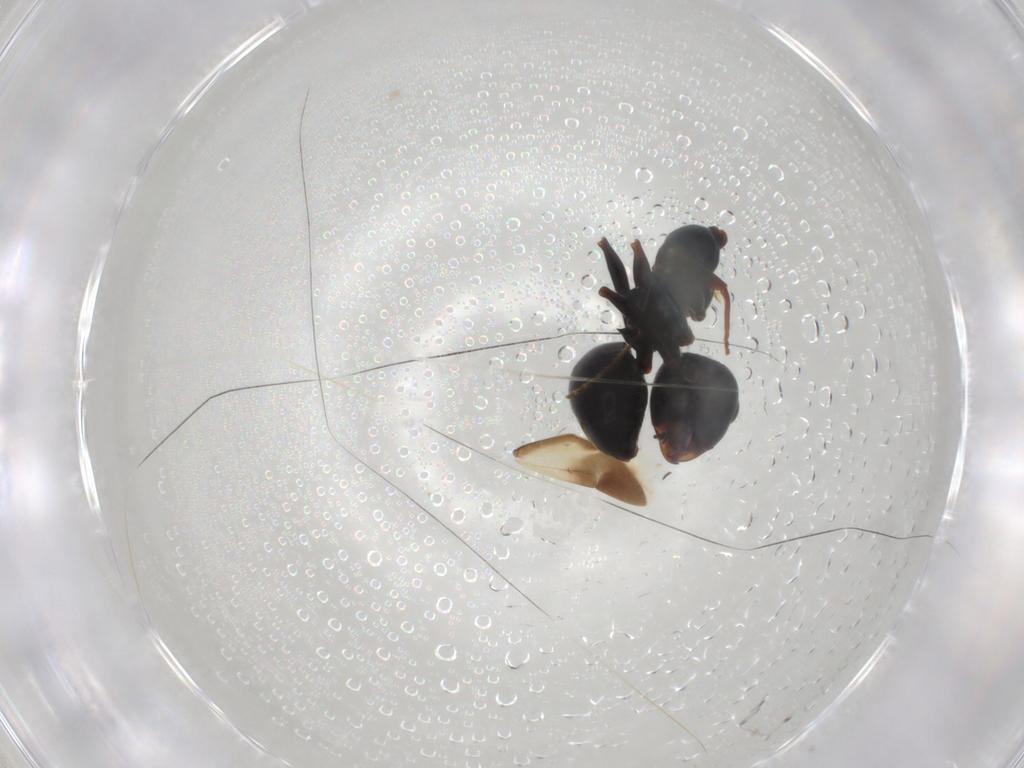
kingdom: Animalia
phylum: Arthropoda
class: Insecta
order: Hymenoptera
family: Formicidae
